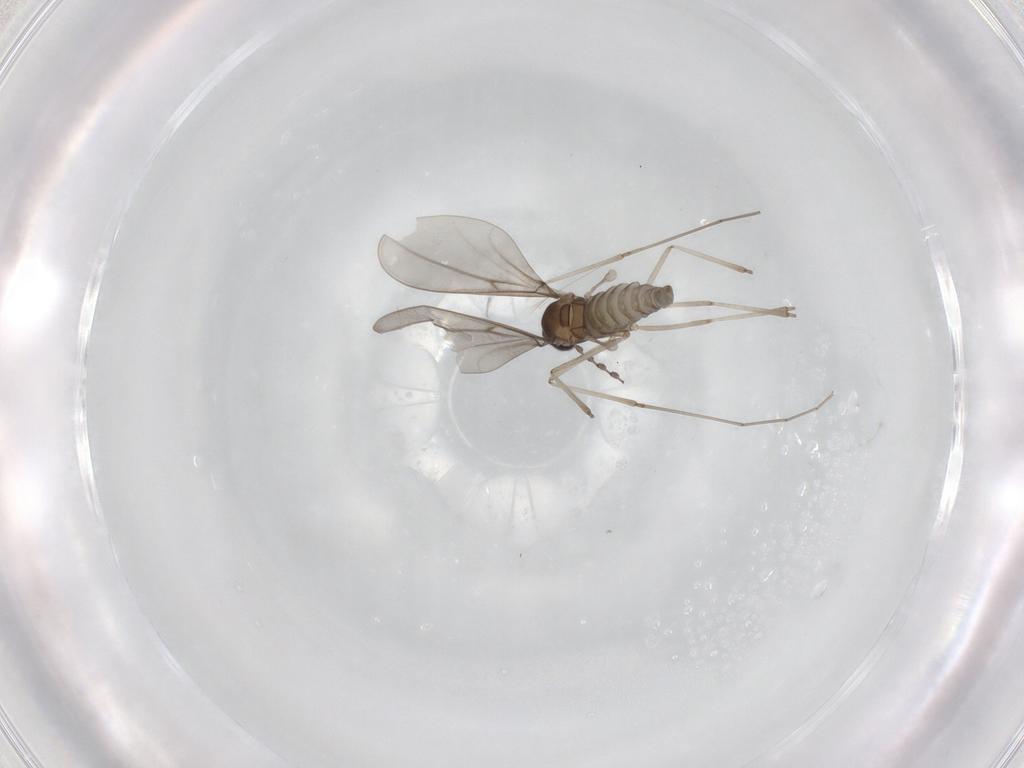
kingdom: Animalia
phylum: Arthropoda
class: Insecta
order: Diptera
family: Cecidomyiidae
